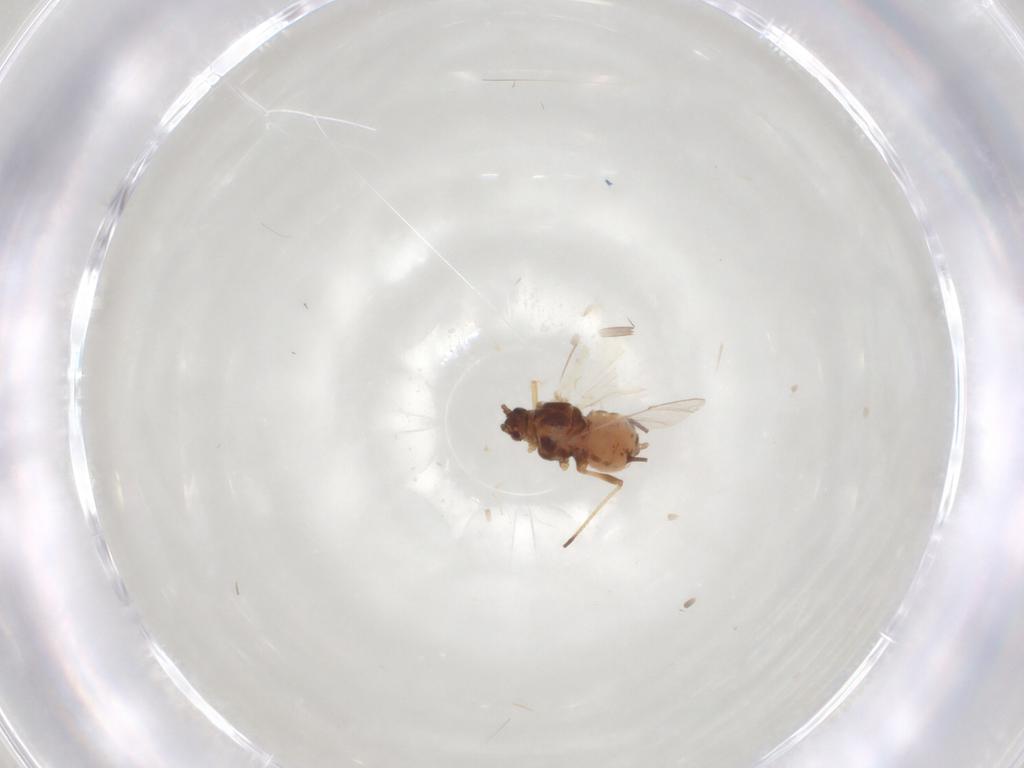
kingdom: Animalia
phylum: Arthropoda
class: Insecta
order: Hemiptera
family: Aphididae
